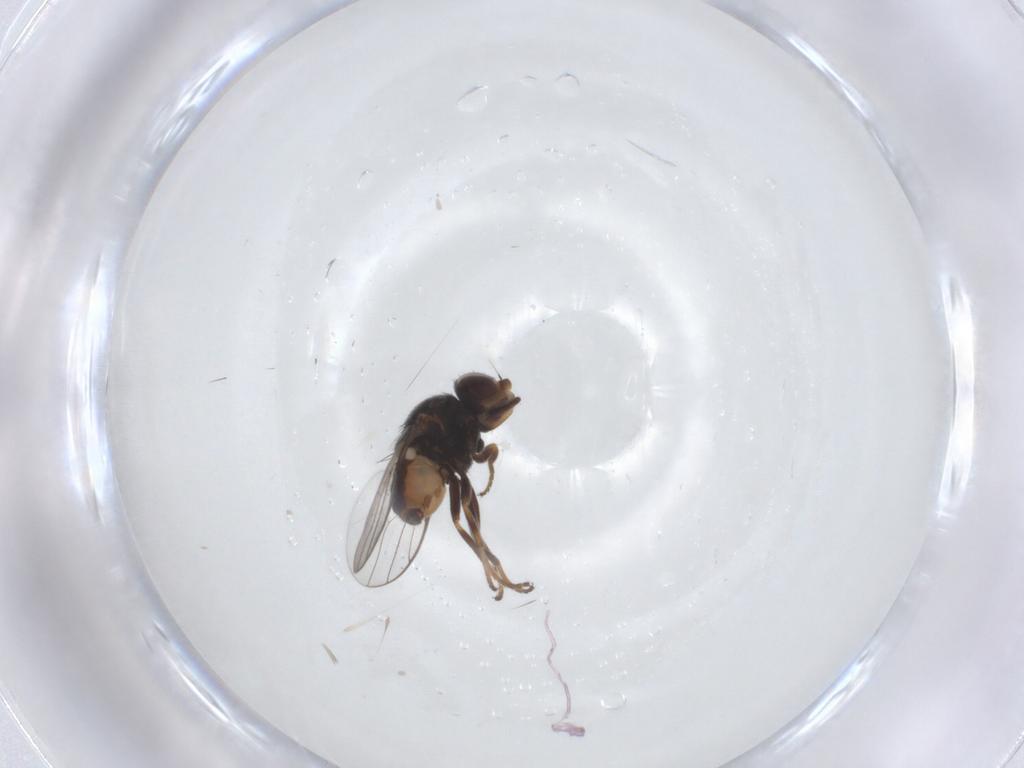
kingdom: Animalia
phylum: Arthropoda
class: Insecta
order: Diptera
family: Chloropidae
